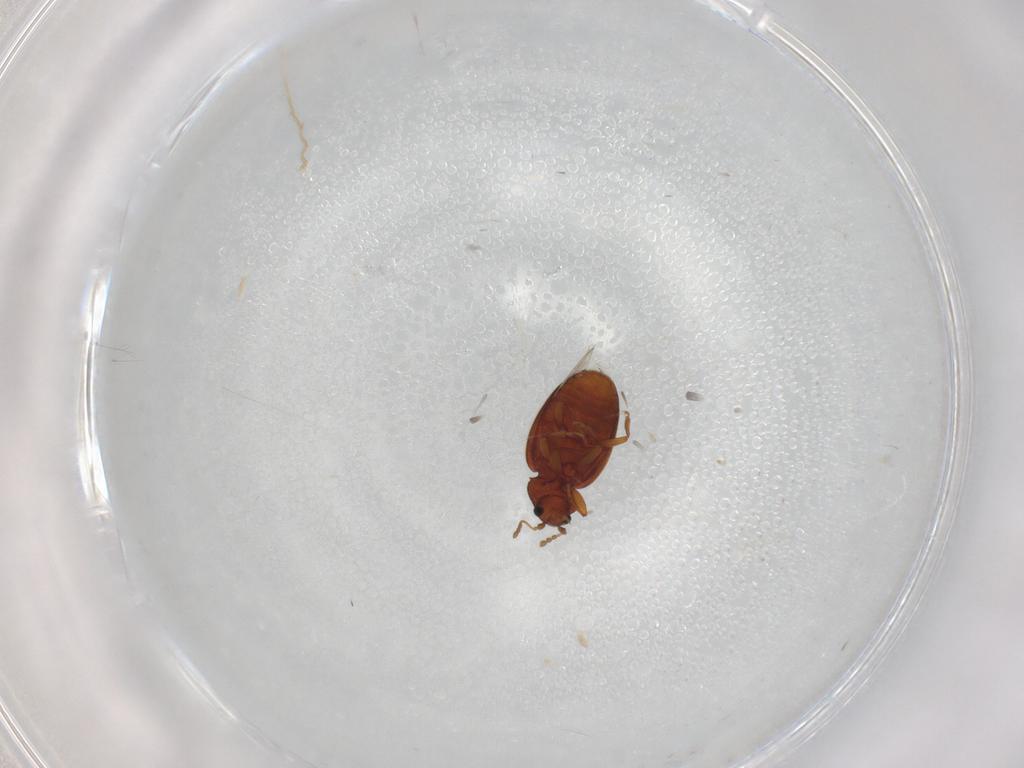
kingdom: Animalia
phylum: Arthropoda
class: Insecta
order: Coleoptera
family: Latridiidae
